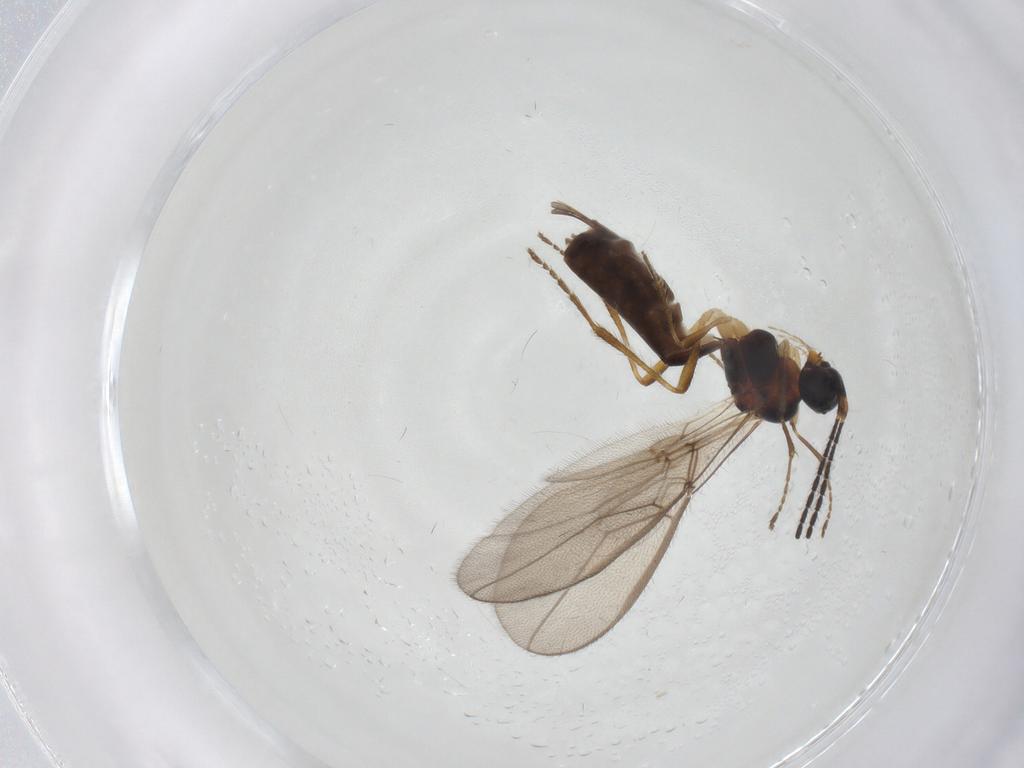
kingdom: Animalia
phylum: Arthropoda
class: Insecta
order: Hymenoptera
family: Braconidae
